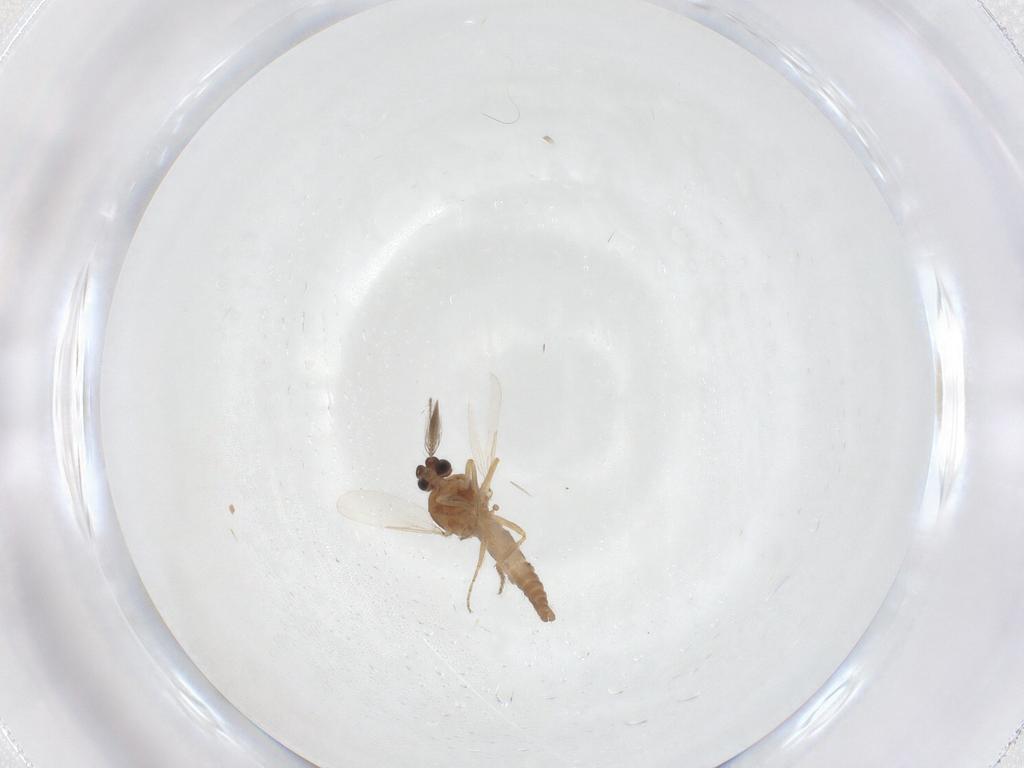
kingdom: Animalia
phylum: Arthropoda
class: Insecta
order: Diptera
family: Ceratopogonidae
